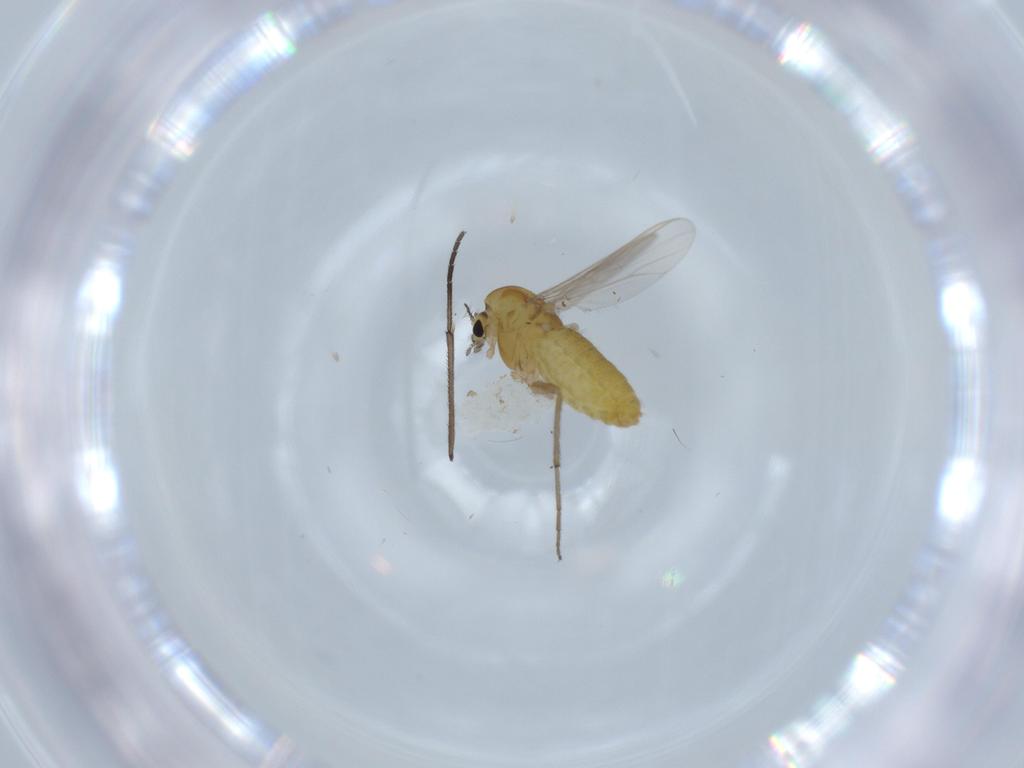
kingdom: Animalia
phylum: Arthropoda
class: Insecta
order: Diptera
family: Chironomidae
